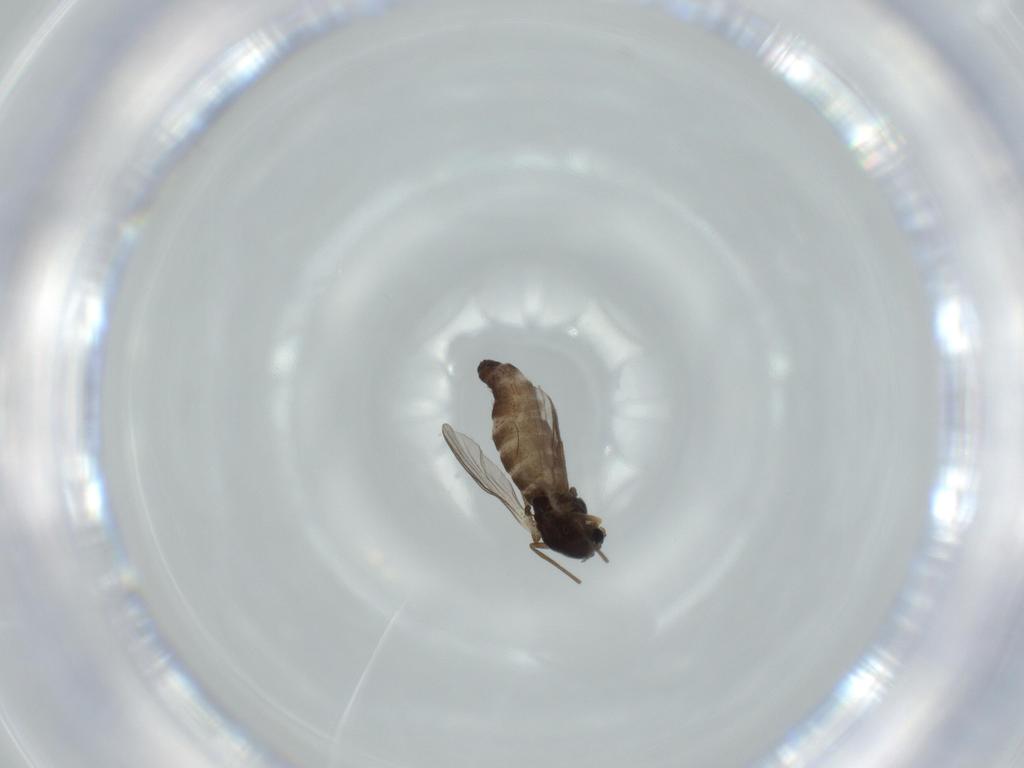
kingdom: Animalia
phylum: Arthropoda
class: Insecta
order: Diptera
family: Chironomidae
